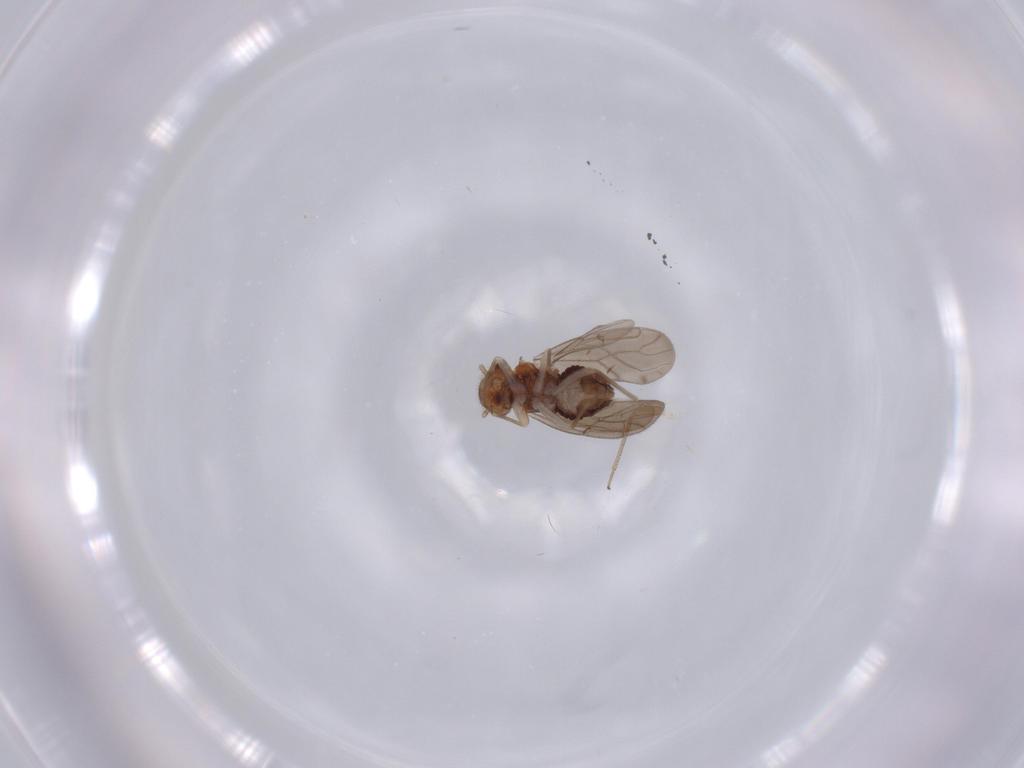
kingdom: Animalia
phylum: Arthropoda
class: Insecta
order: Psocodea
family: Ectopsocidae
